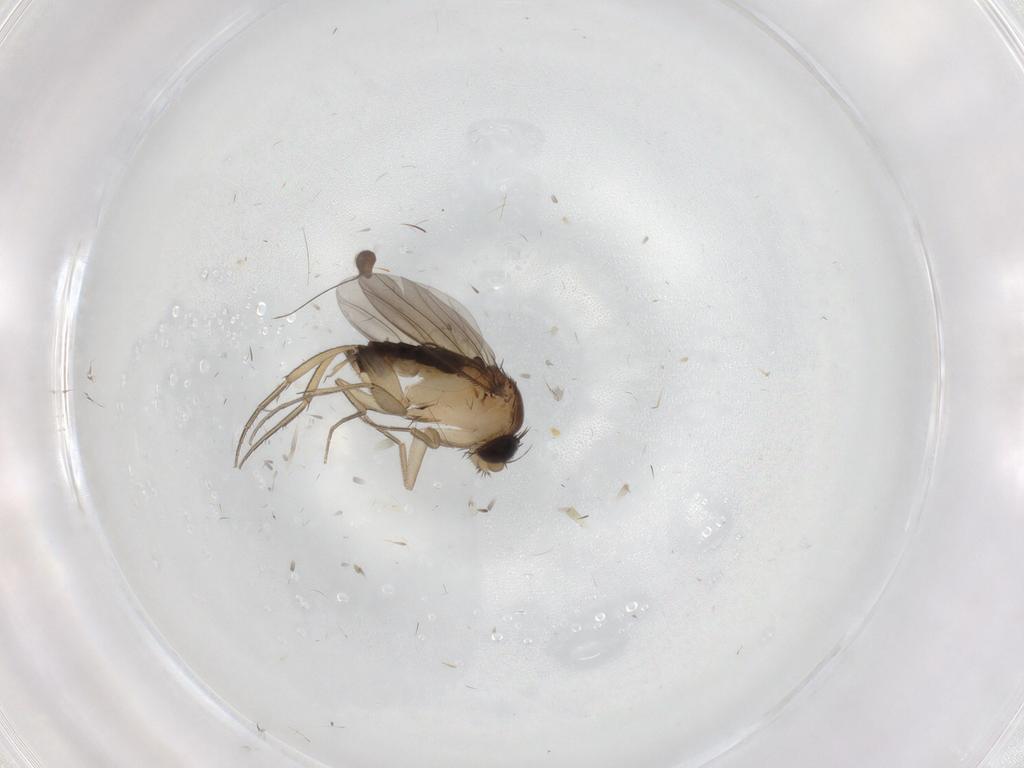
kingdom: Animalia
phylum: Arthropoda
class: Insecta
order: Diptera
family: Phoridae
